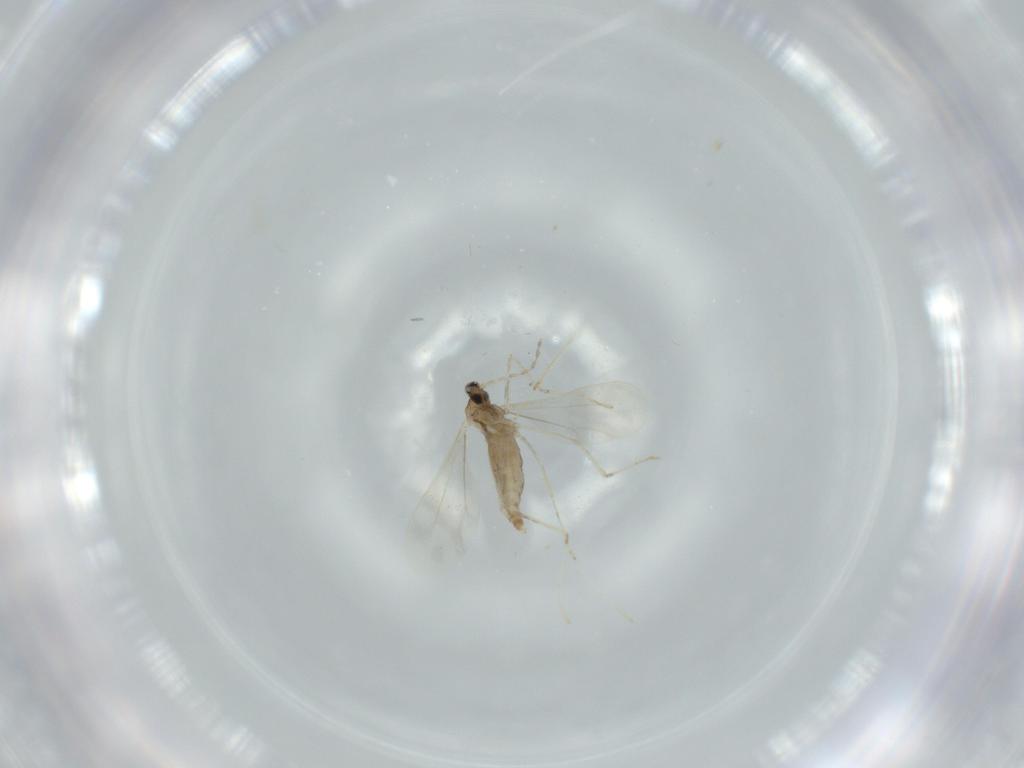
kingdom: Animalia
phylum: Arthropoda
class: Insecta
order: Diptera
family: Cecidomyiidae
